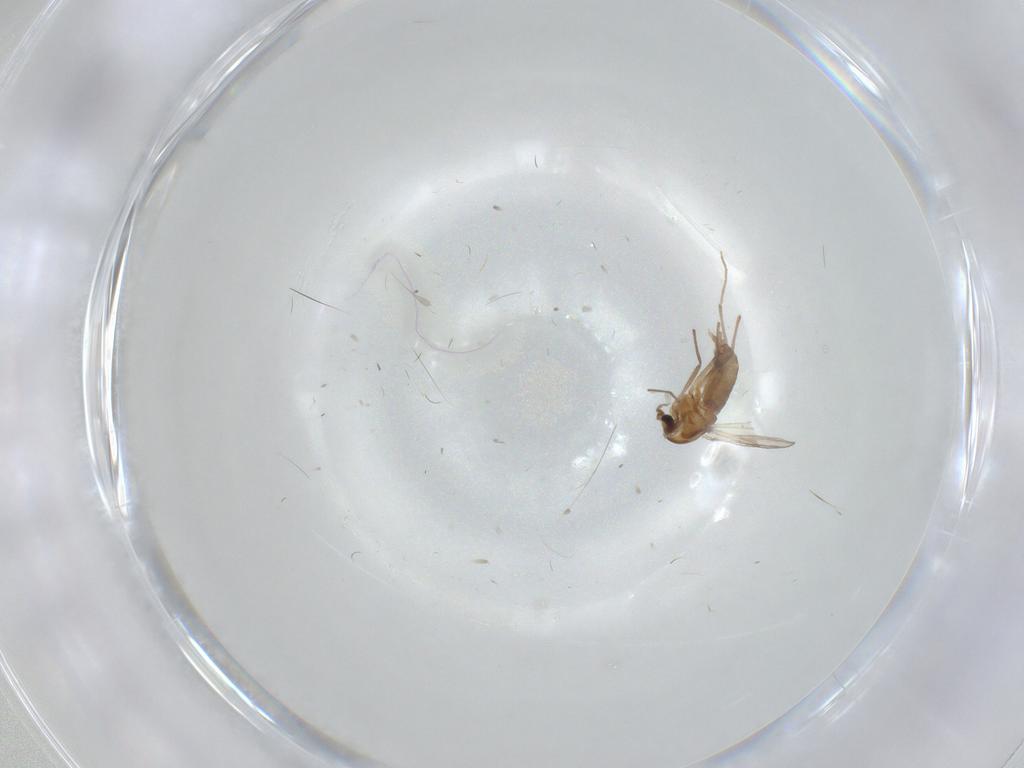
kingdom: Animalia
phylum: Arthropoda
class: Insecta
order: Diptera
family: Chironomidae
